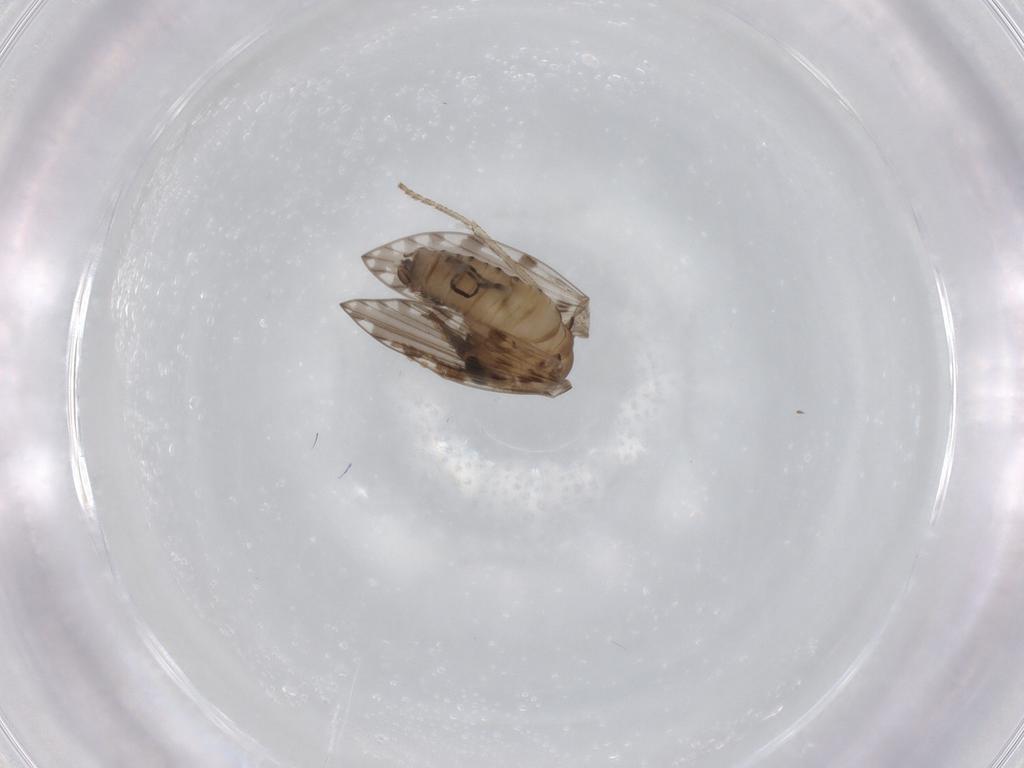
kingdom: Animalia
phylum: Arthropoda
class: Insecta
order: Diptera
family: Psychodidae
